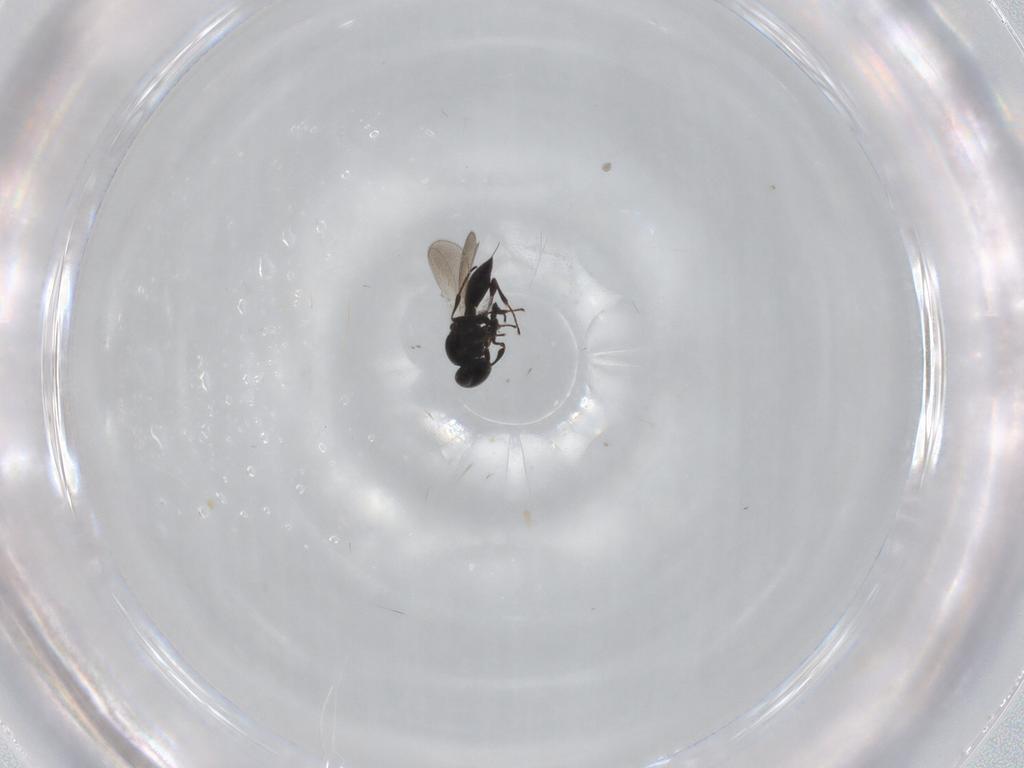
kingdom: Animalia
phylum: Arthropoda
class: Insecta
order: Hymenoptera
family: Platygastridae
